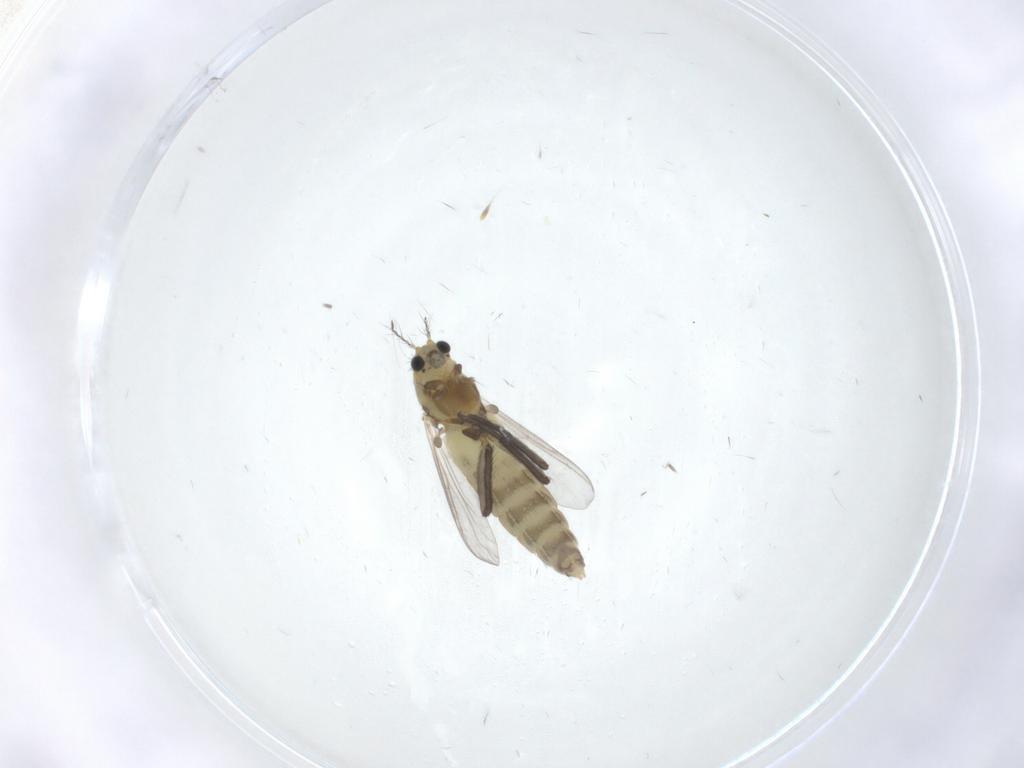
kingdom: Animalia
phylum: Arthropoda
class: Insecta
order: Diptera
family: Chironomidae
